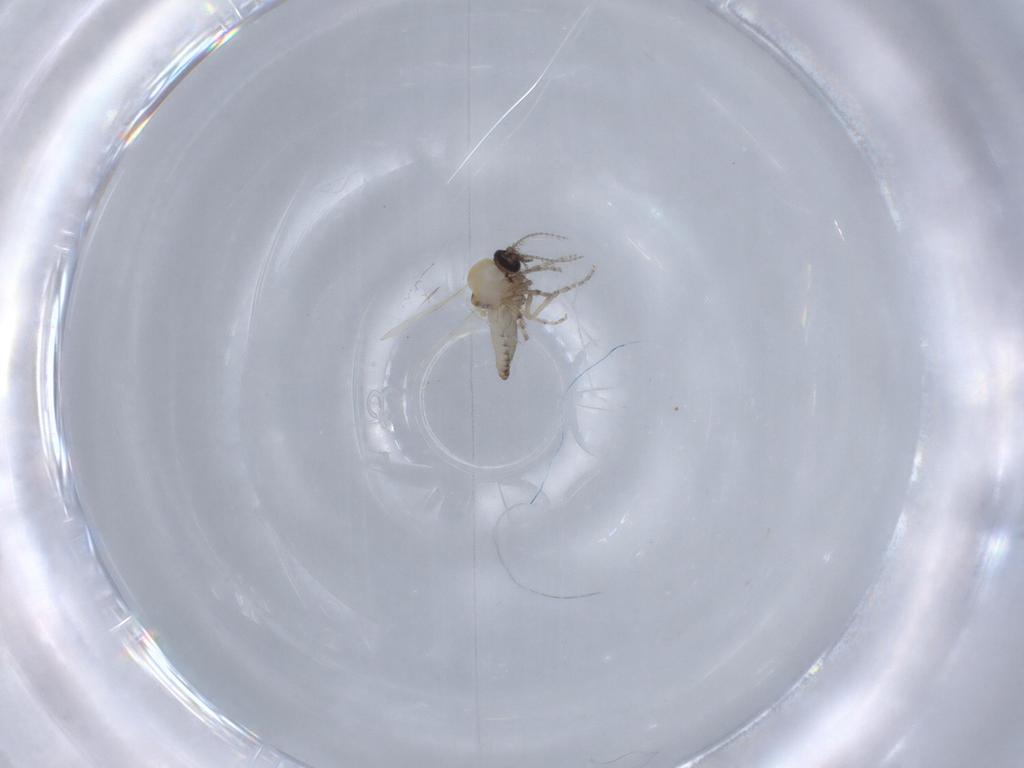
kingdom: Animalia
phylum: Arthropoda
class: Insecta
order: Diptera
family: Ceratopogonidae
